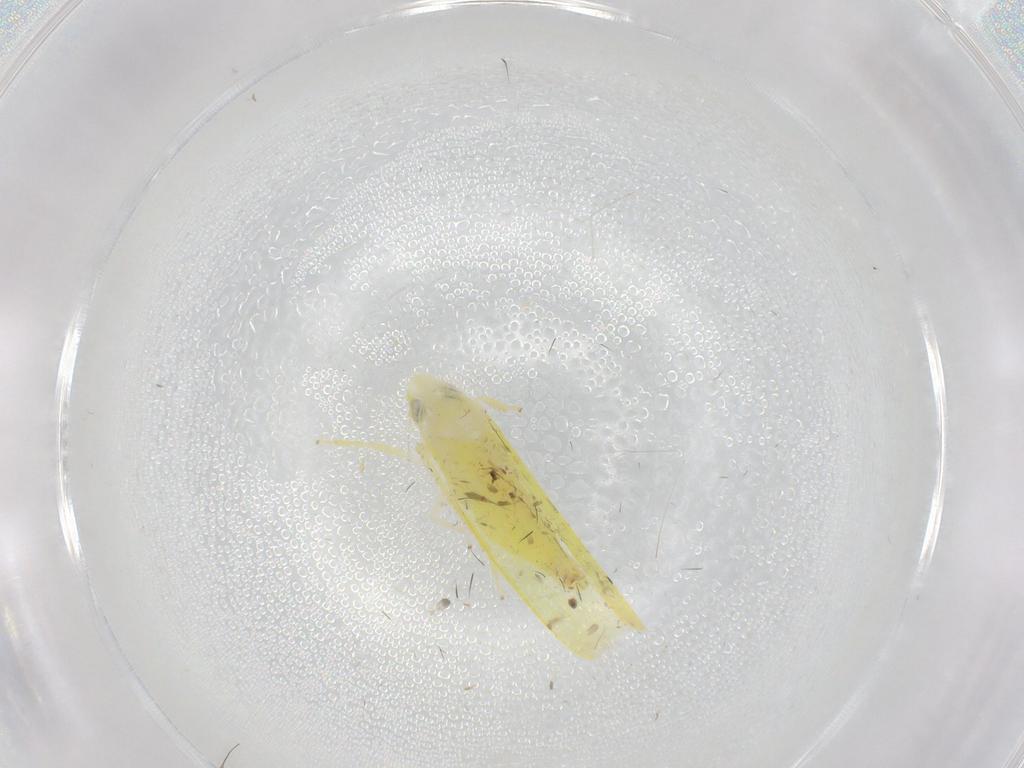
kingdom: Animalia
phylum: Arthropoda
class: Insecta
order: Hemiptera
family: Cicadellidae
